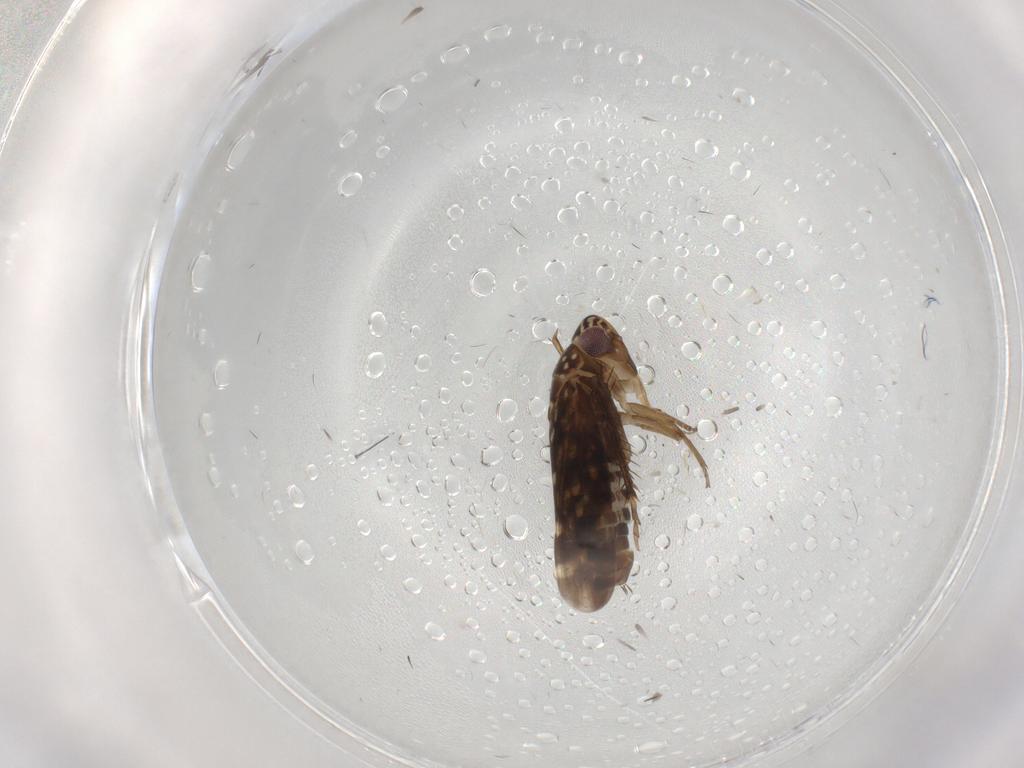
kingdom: Animalia
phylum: Arthropoda
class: Insecta
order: Hemiptera
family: Cicadellidae
